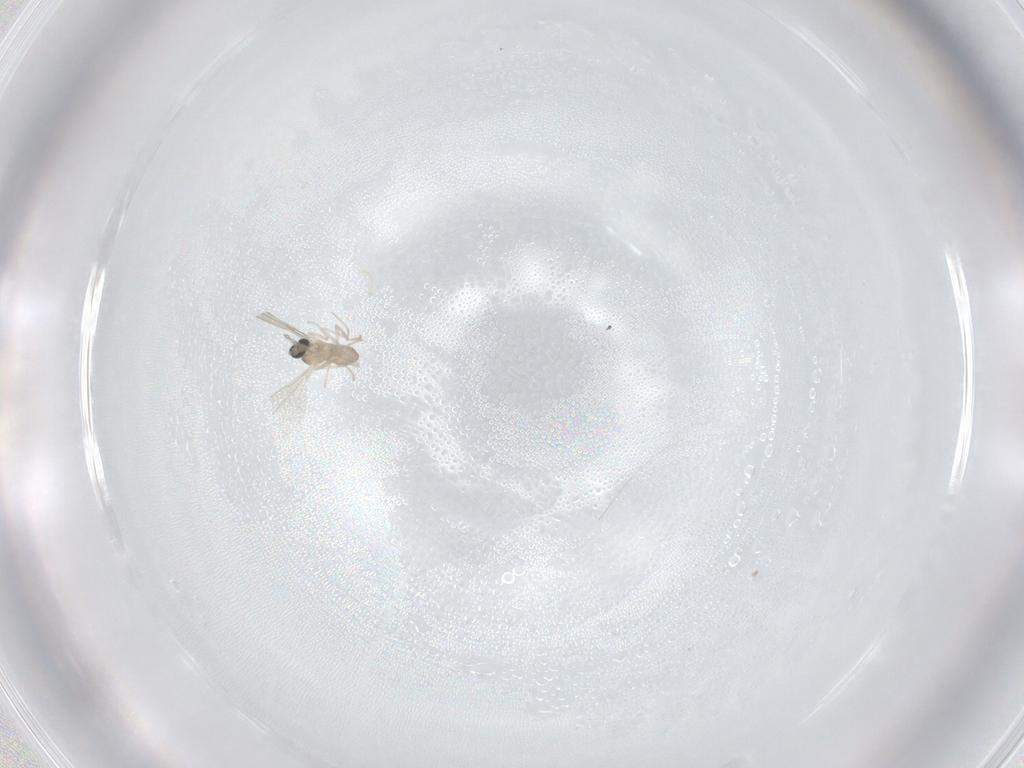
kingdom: Animalia
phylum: Arthropoda
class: Insecta
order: Diptera
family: Cecidomyiidae
